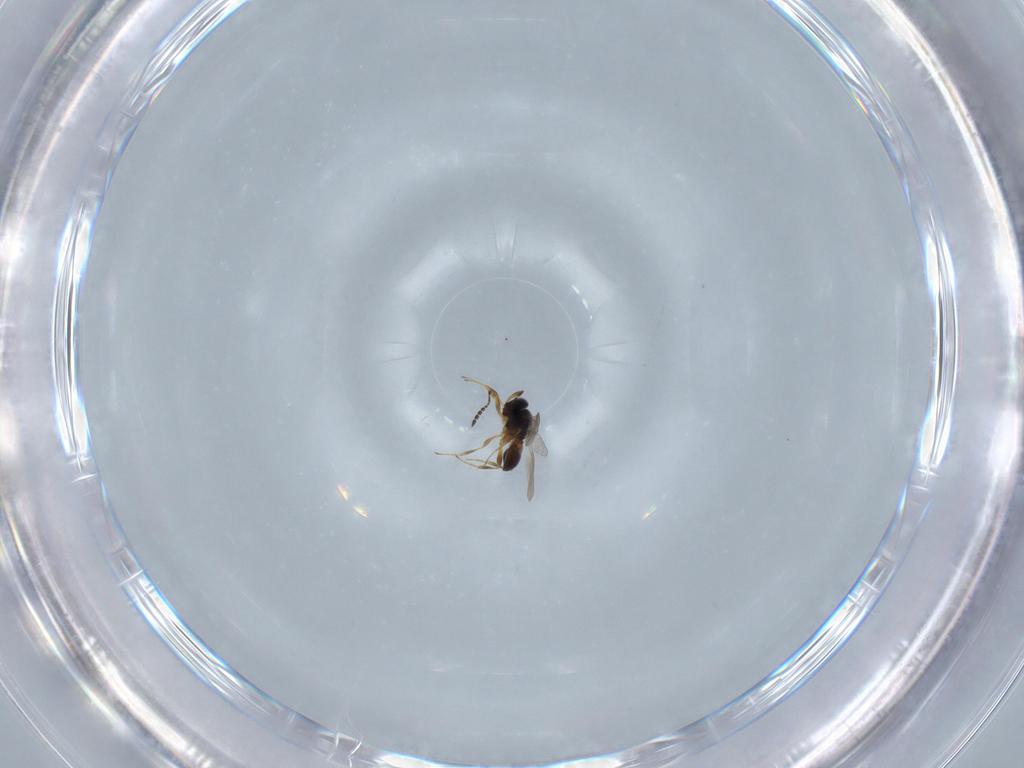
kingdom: Animalia
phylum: Arthropoda
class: Insecta
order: Hymenoptera
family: Platygastridae
